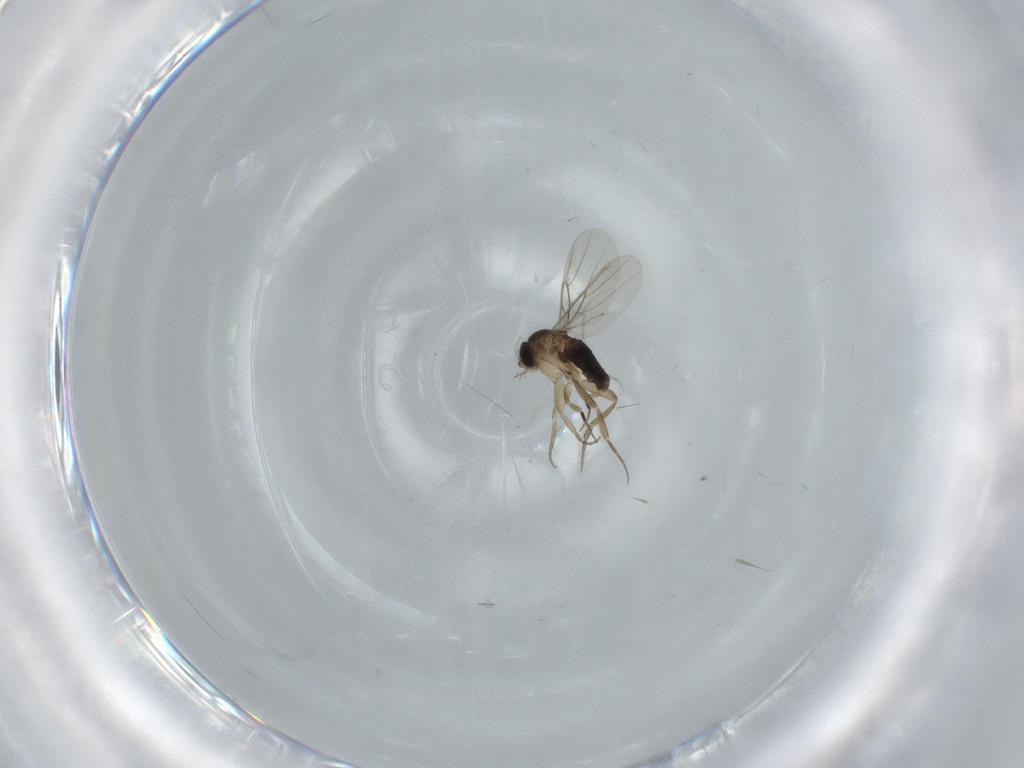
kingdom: Animalia
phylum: Arthropoda
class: Insecta
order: Diptera
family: Phoridae
